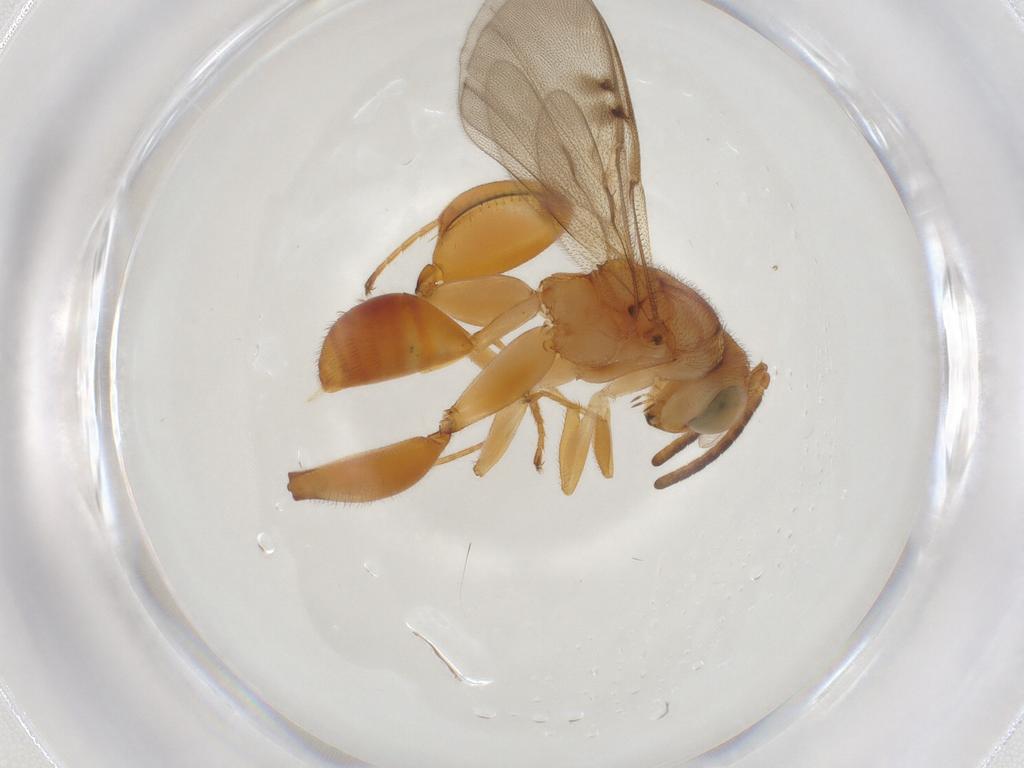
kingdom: Animalia
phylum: Arthropoda
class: Insecta
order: Hymenoptera
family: Chalcididae
